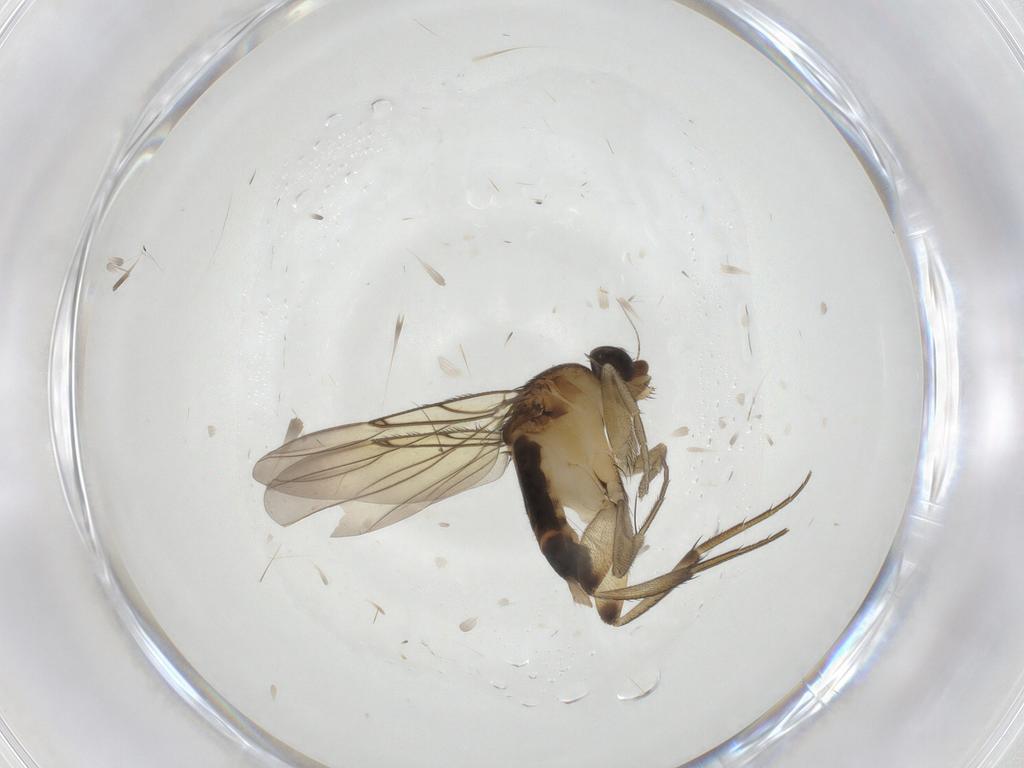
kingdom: Animalia
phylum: Arthropoda
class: Insecta
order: Diptera
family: Phoridae
